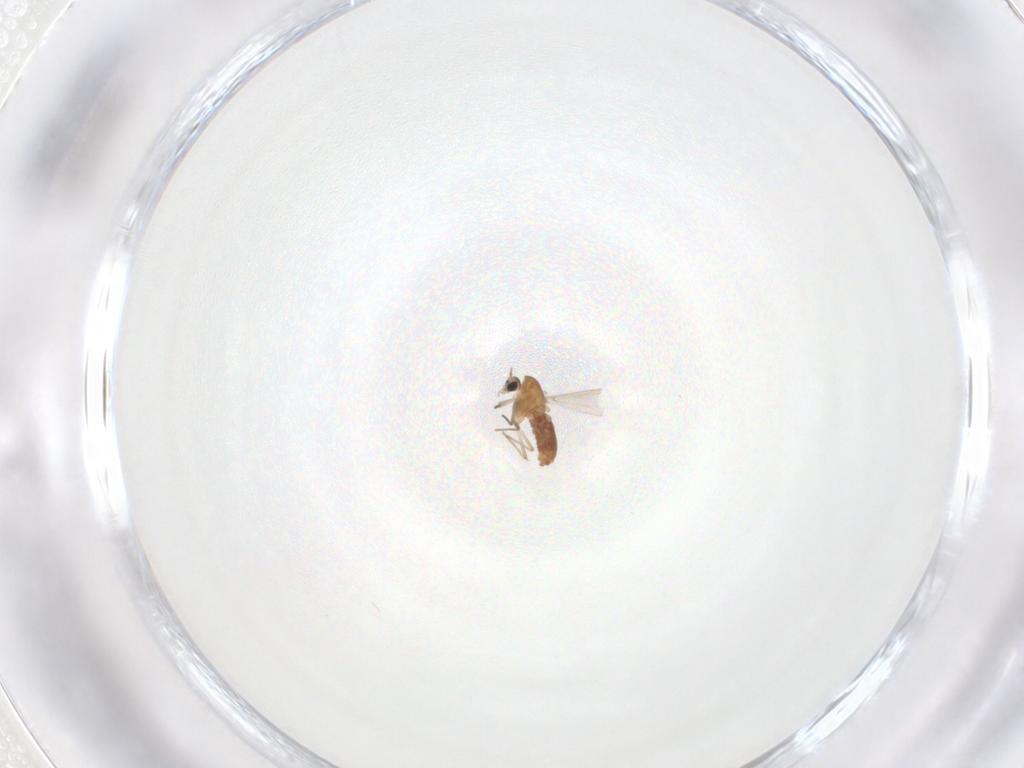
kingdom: Animalia
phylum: Arthropoda
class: Insecta
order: Diptera
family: Chironomidae
